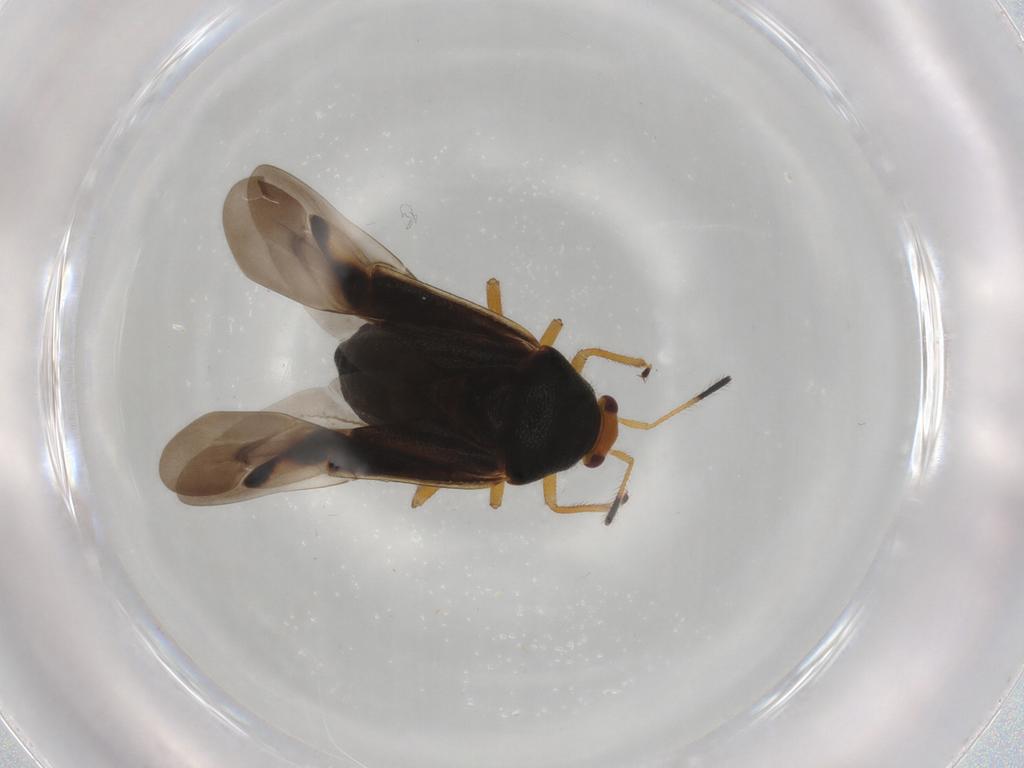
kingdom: Animalia
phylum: Arthropoda
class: Insecta
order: Hemiptera
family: Miridae
